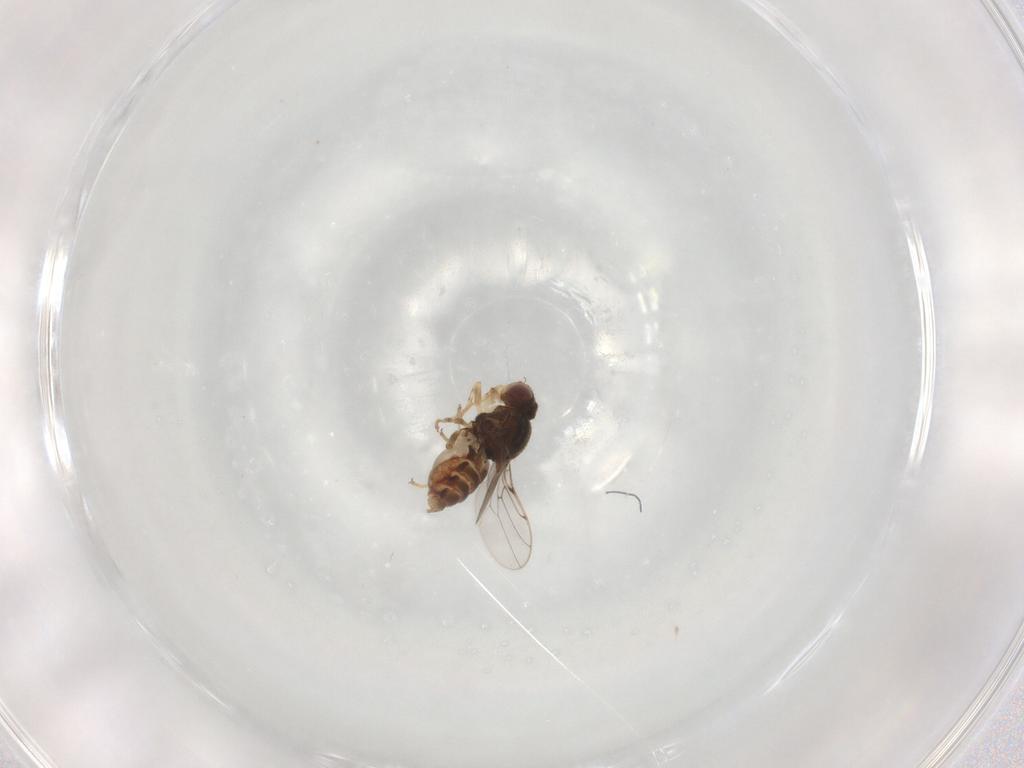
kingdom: Animalia
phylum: Arthropoda
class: Insecta
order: Diptera
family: Chloropidae
